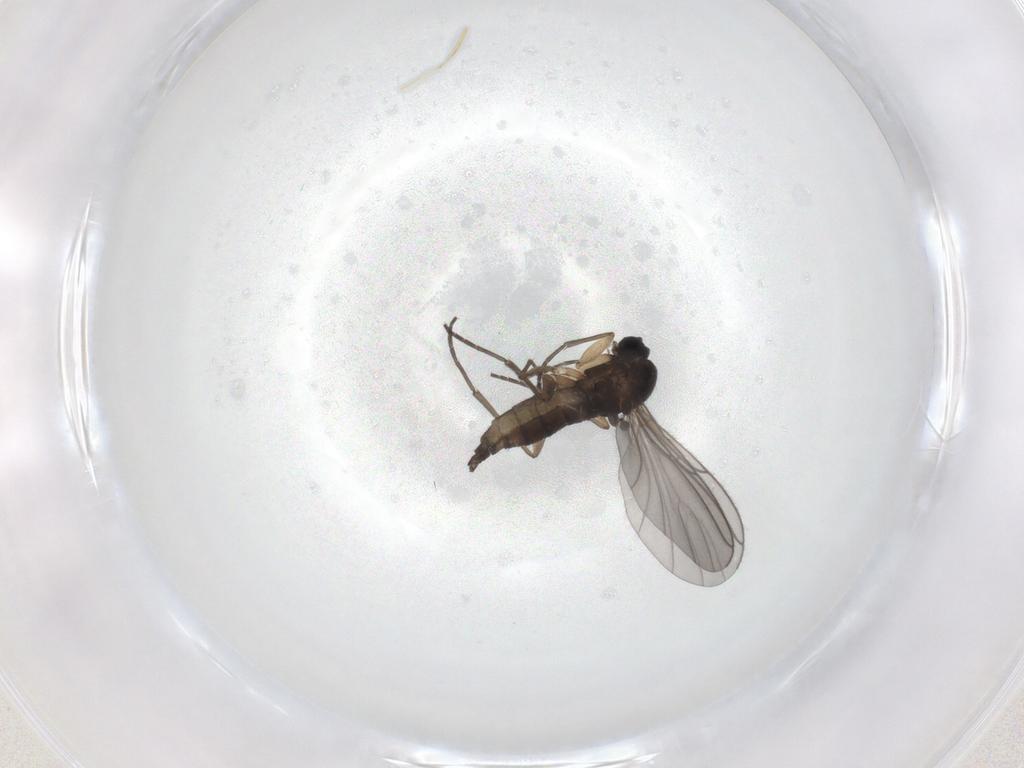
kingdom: Animalia
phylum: Arthropoda
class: Insecta
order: Diptera
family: Sciaridae
